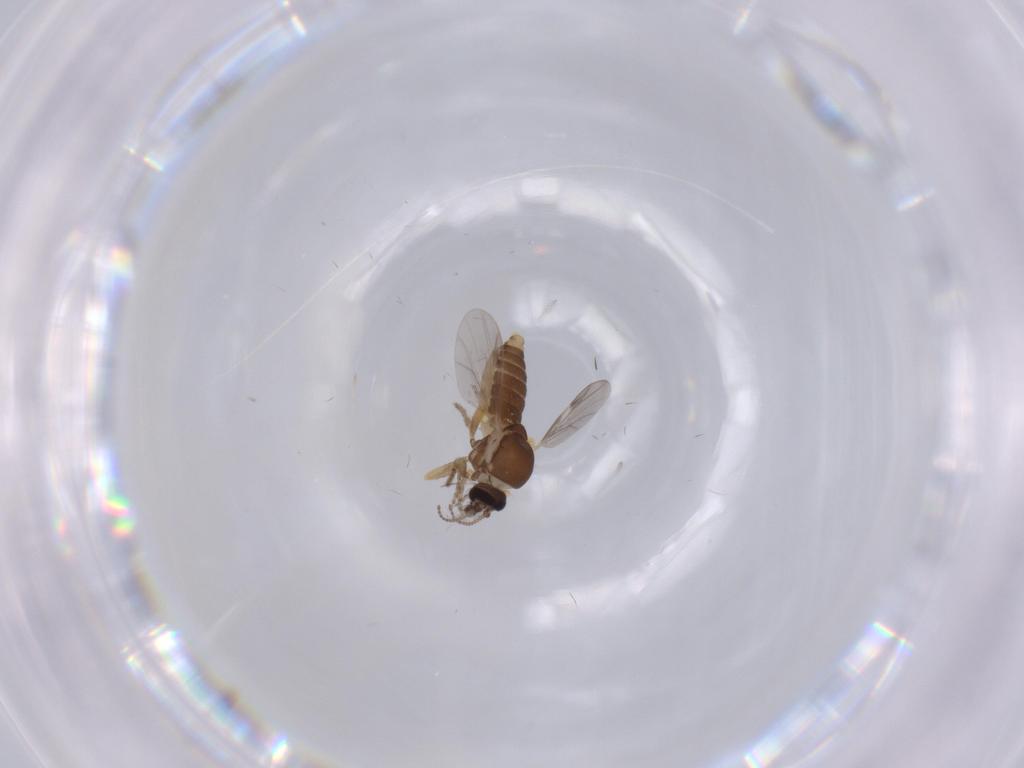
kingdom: Animalia
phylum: Arthropoda
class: Insecta
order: Diptera
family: Ceratopogonidae
